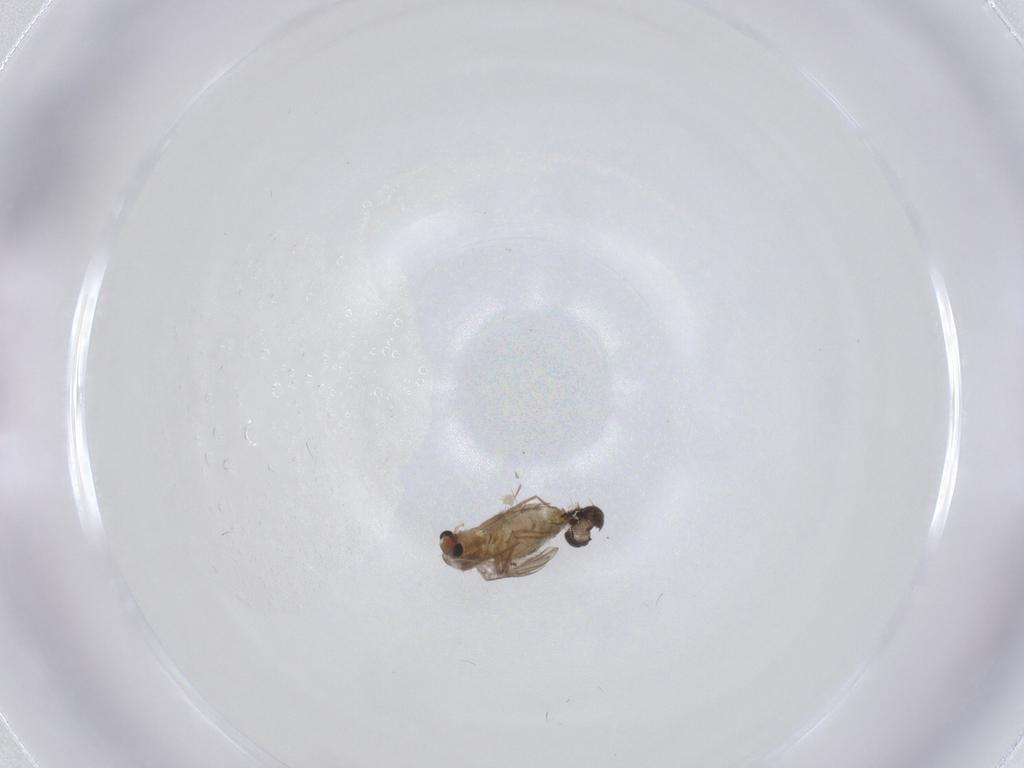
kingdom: Animalia
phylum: Arthropoda
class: Insecta
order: Diptera
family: Chironomidae
